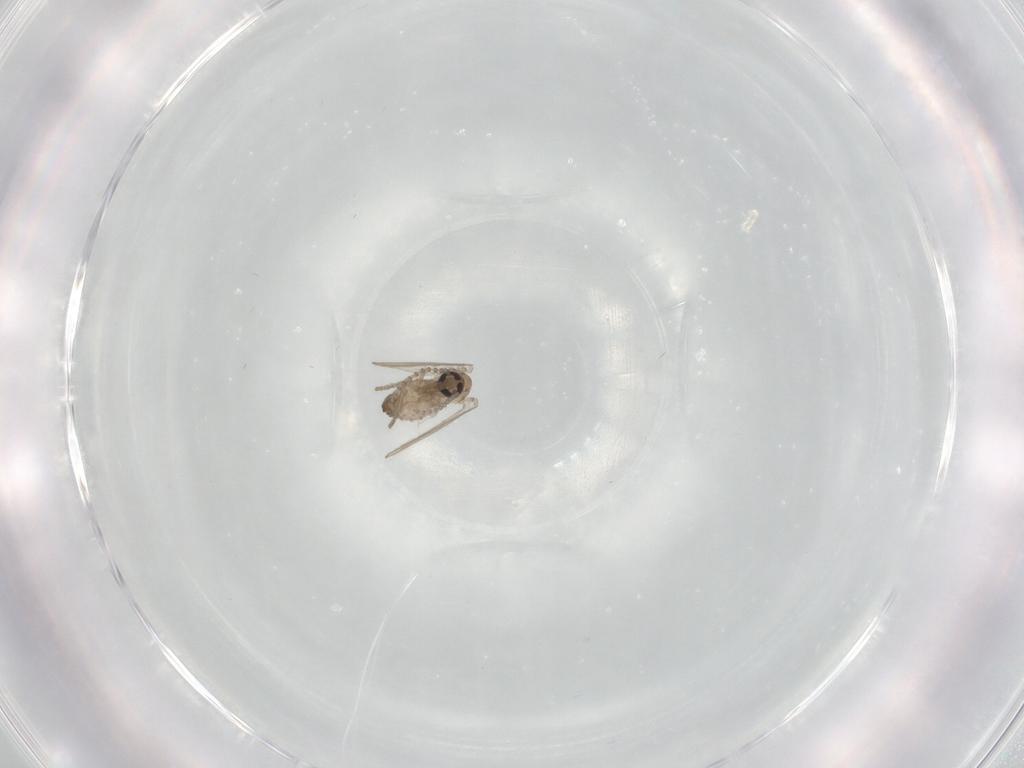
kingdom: Animalia
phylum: Arthropoda
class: Insecta
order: Diptera
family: Psychodidae
